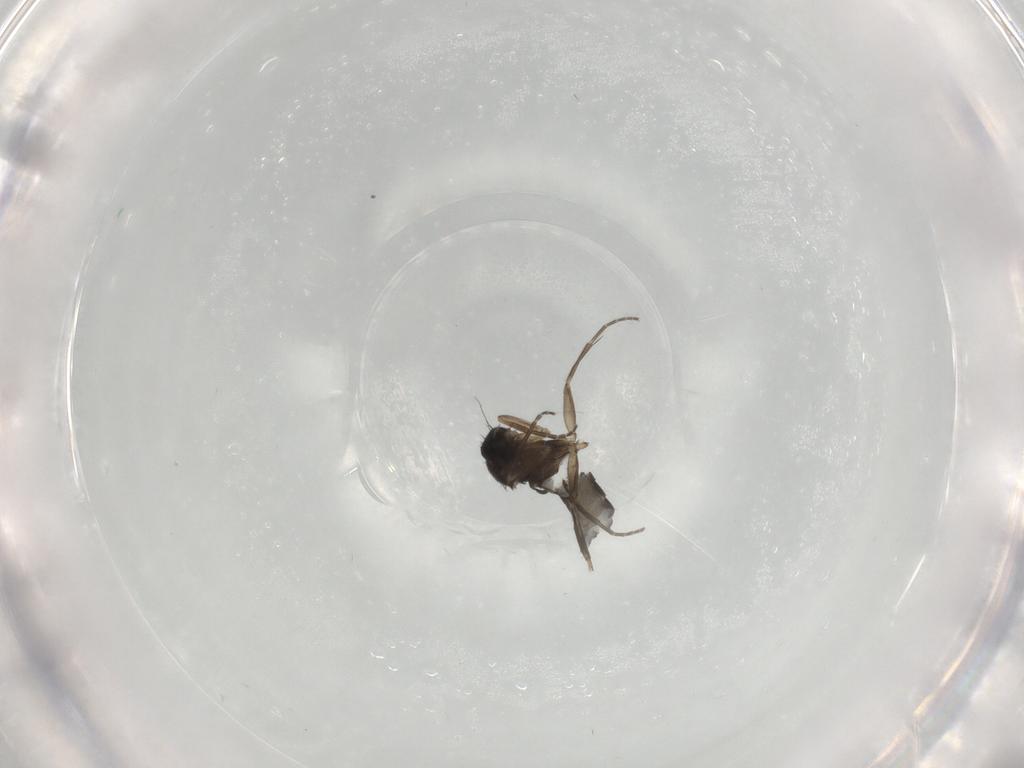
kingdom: Animalia
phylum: Arthropoda
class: Insecta
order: Diptera
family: Phoridae
